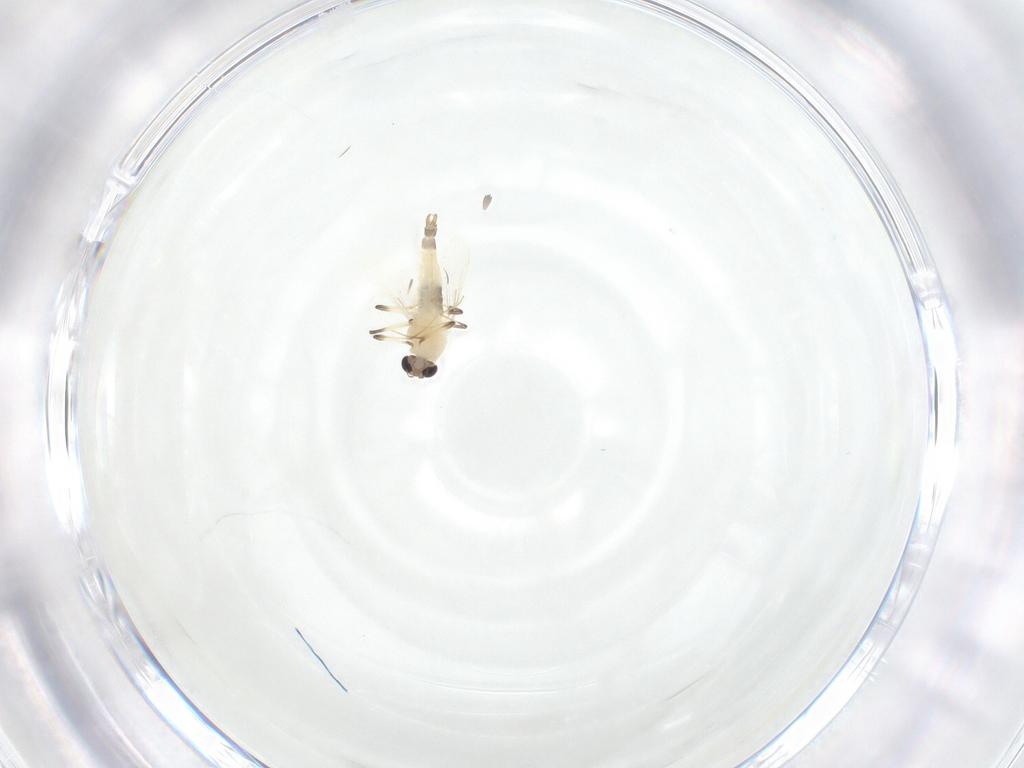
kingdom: Animalia
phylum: Arthropoda
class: Insecta
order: Diptera
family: Chironomidae
